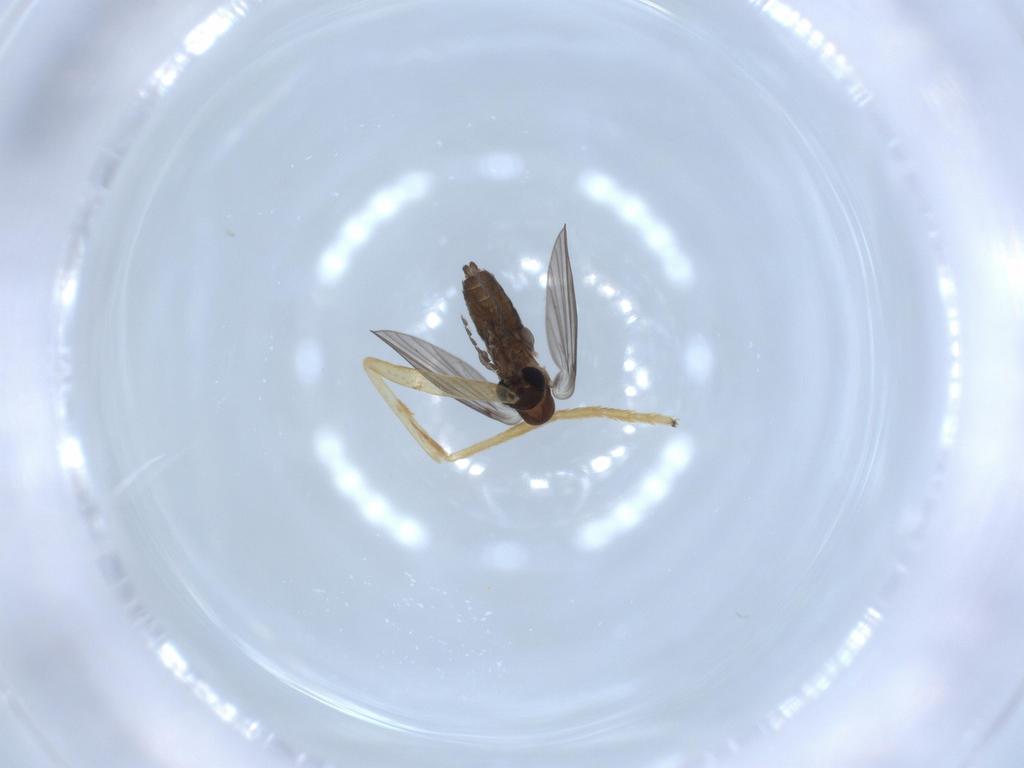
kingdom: Animalia
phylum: Arthropoda
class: Insecta
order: Diptera
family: Psychodidae
